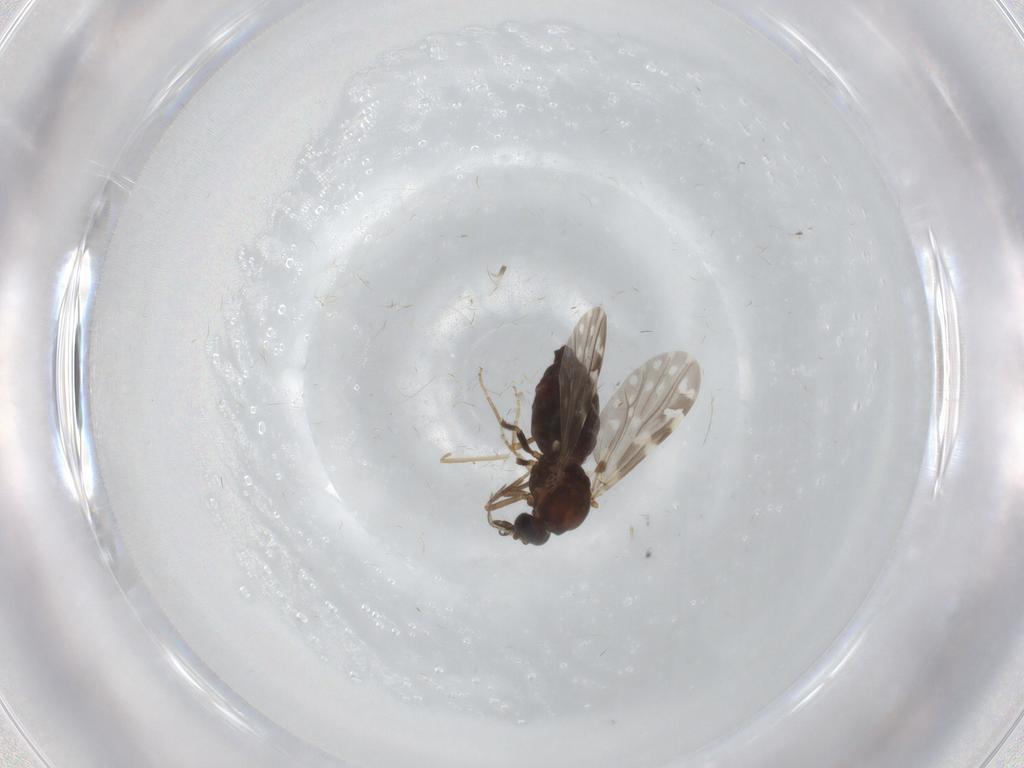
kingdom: Animalia
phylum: Arthropoda
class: Insecta
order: Diptera
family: Ceratopogonidae
